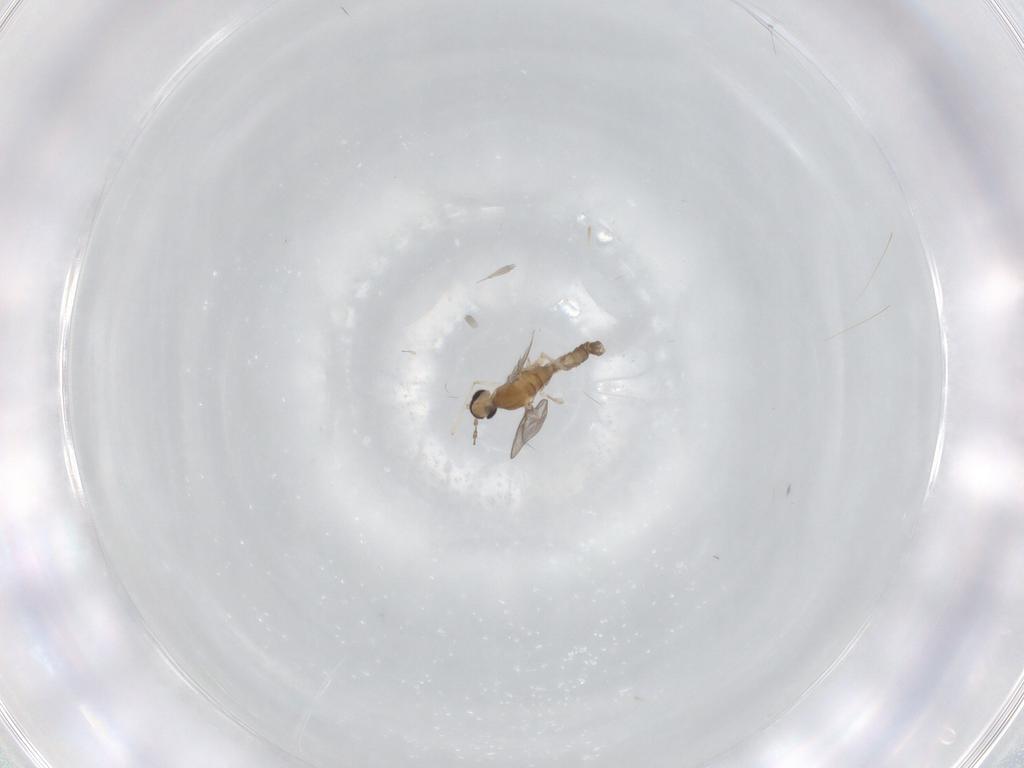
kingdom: Animalia
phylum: Arthropoda
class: Insecta
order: Diptera
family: Sciaridae
